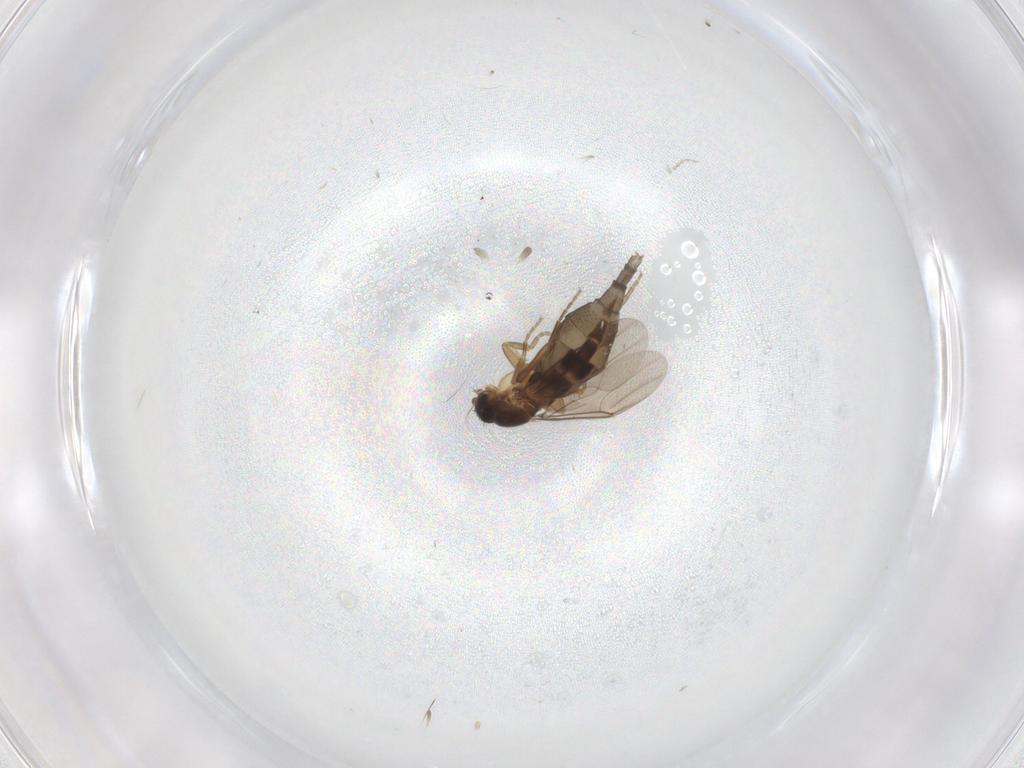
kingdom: Animalia
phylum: Arthropoda
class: Insecta
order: Diptera
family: Phoridae
